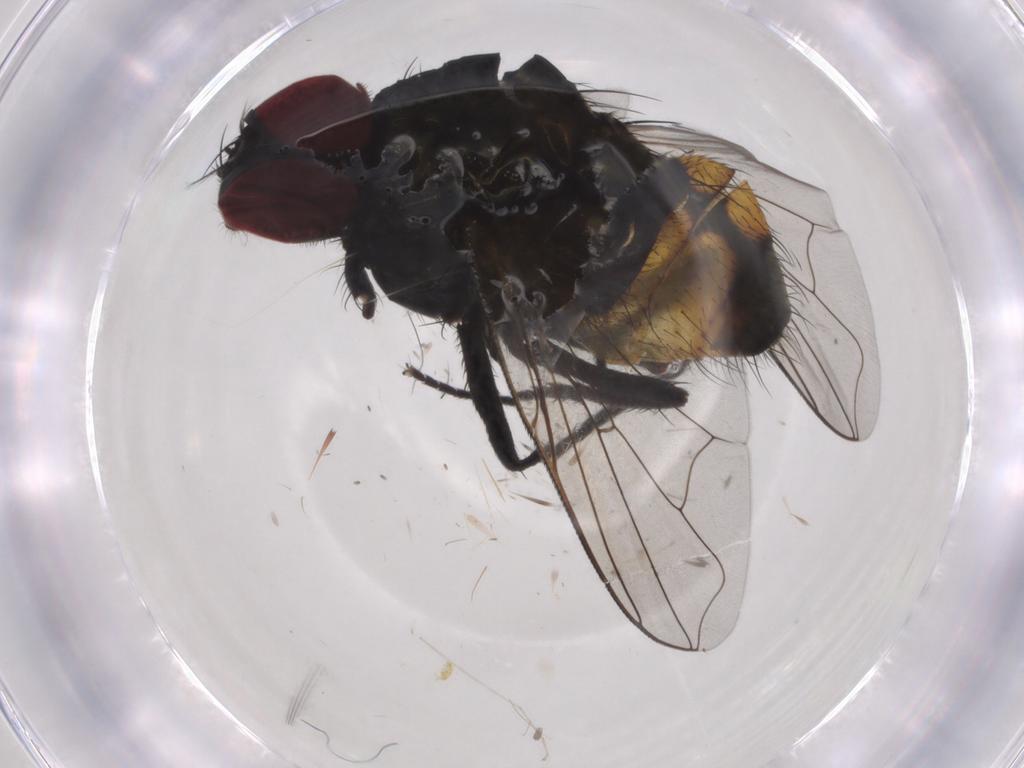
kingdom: Animalia
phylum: Arthropoda
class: Insecta
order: Diptera
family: Muscidae
